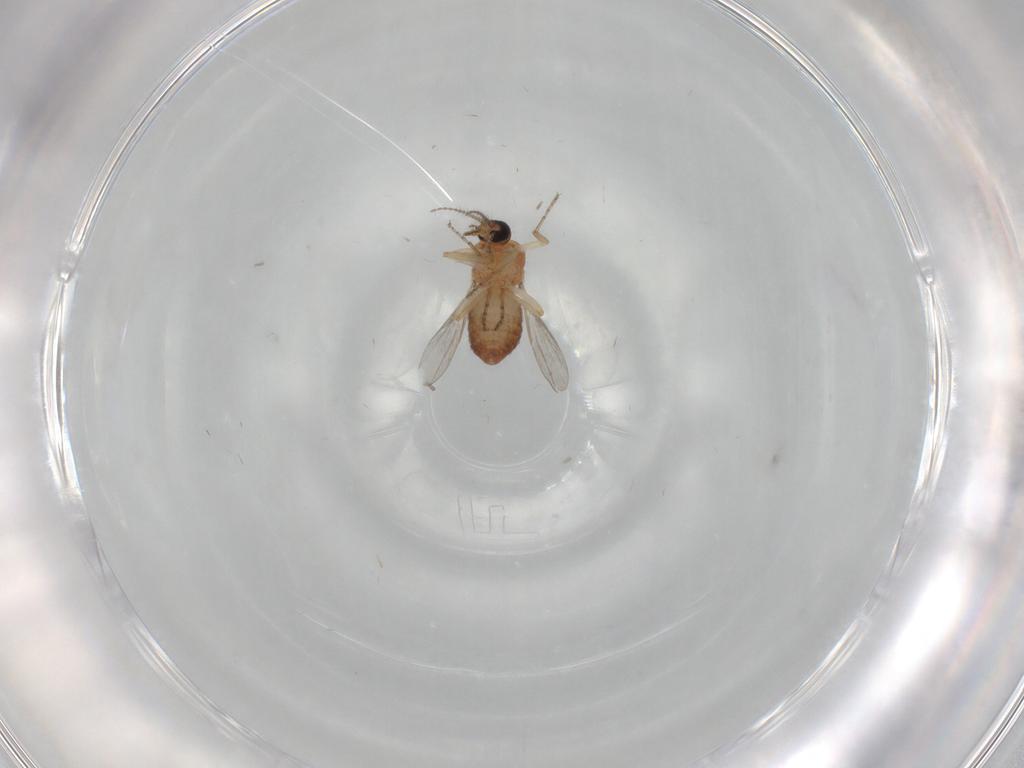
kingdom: Animalia
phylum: Arthropoda
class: Insecta
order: Diptera
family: Ceratopogonidae
